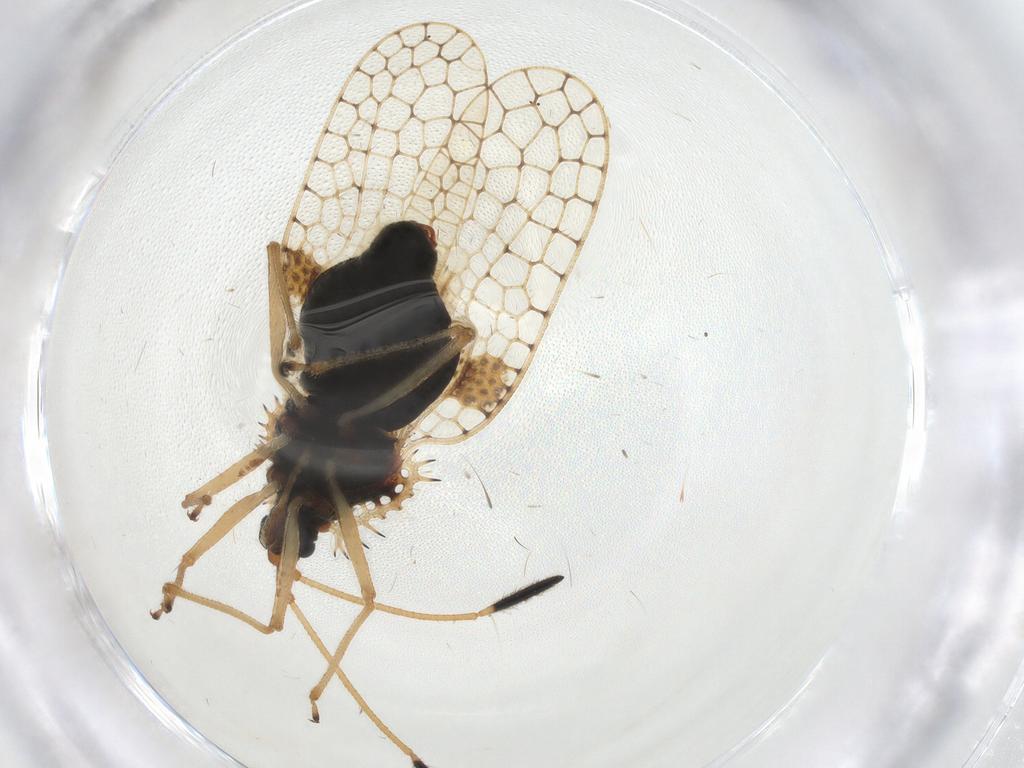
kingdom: Animalia
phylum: Arthropoda
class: Insecta
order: Hemiptera
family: Tingidae
